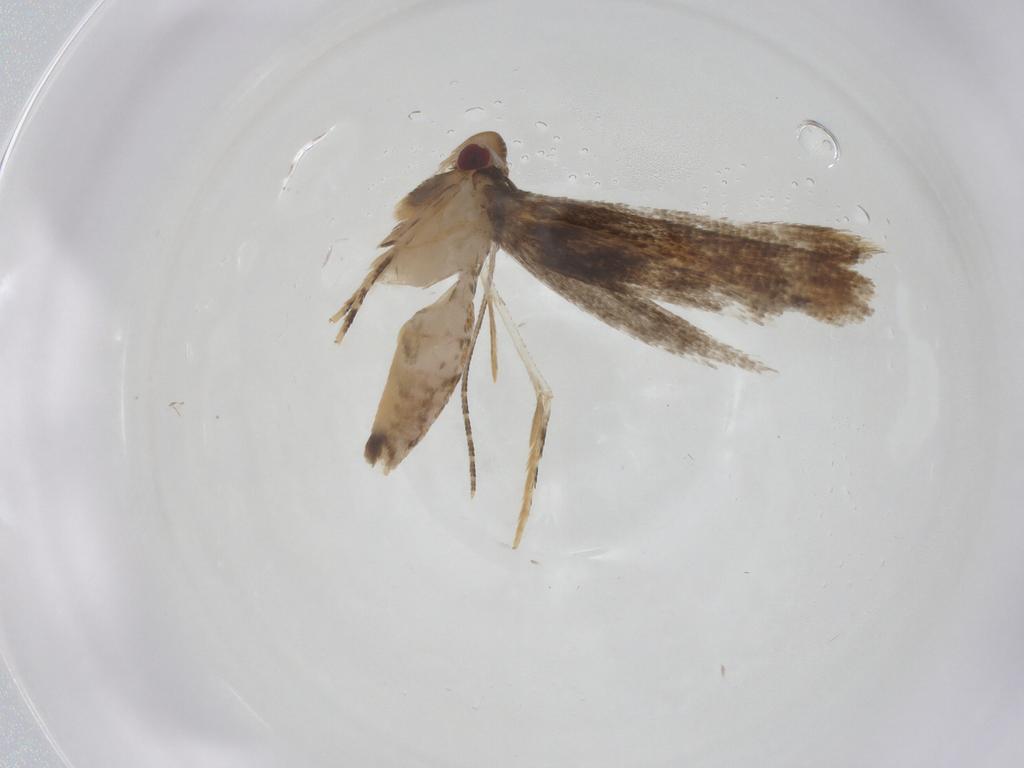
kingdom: Animalia
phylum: Arthropoda
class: Insecta
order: Lepidoptera
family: Momphidae
